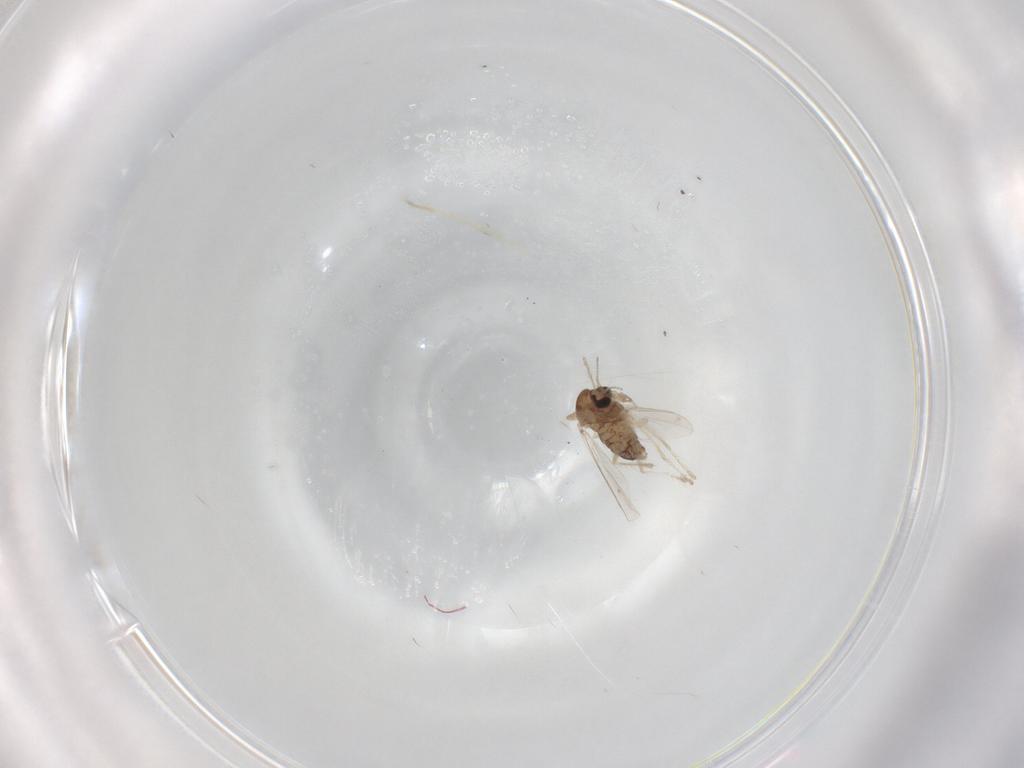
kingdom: Animalia
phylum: Arthropoda
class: Insecta
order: Diptera
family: Chironomidae
